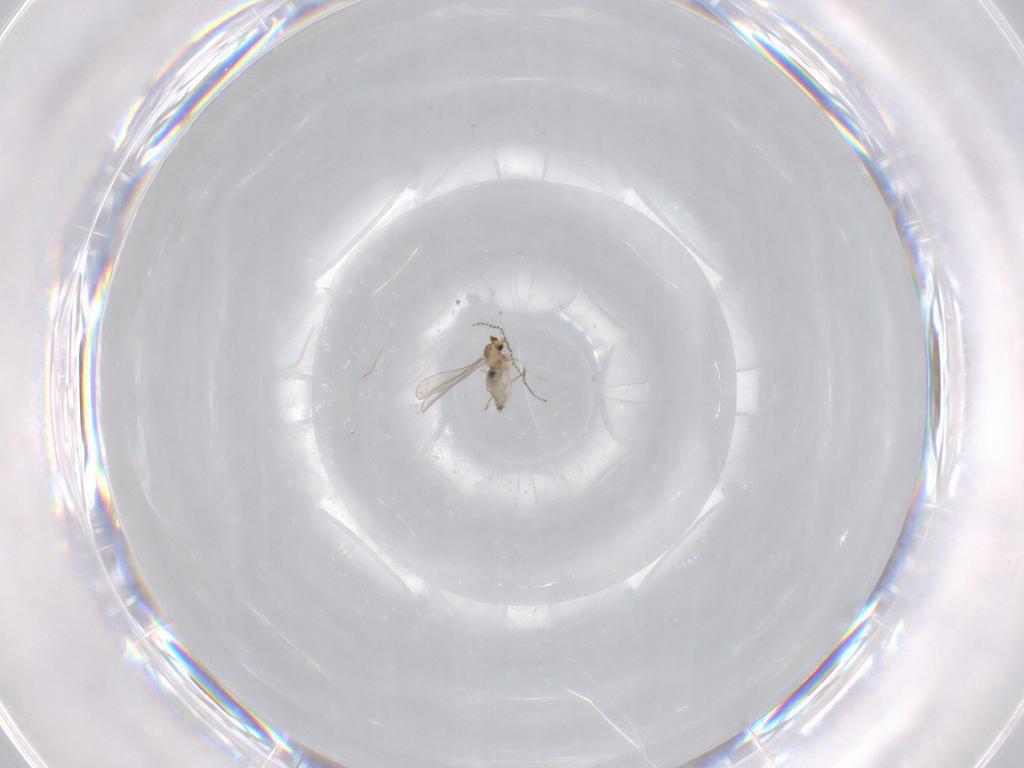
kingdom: Animalia
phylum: Arthropoda
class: Insecta
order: Diptera
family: Cecidomyiidae
